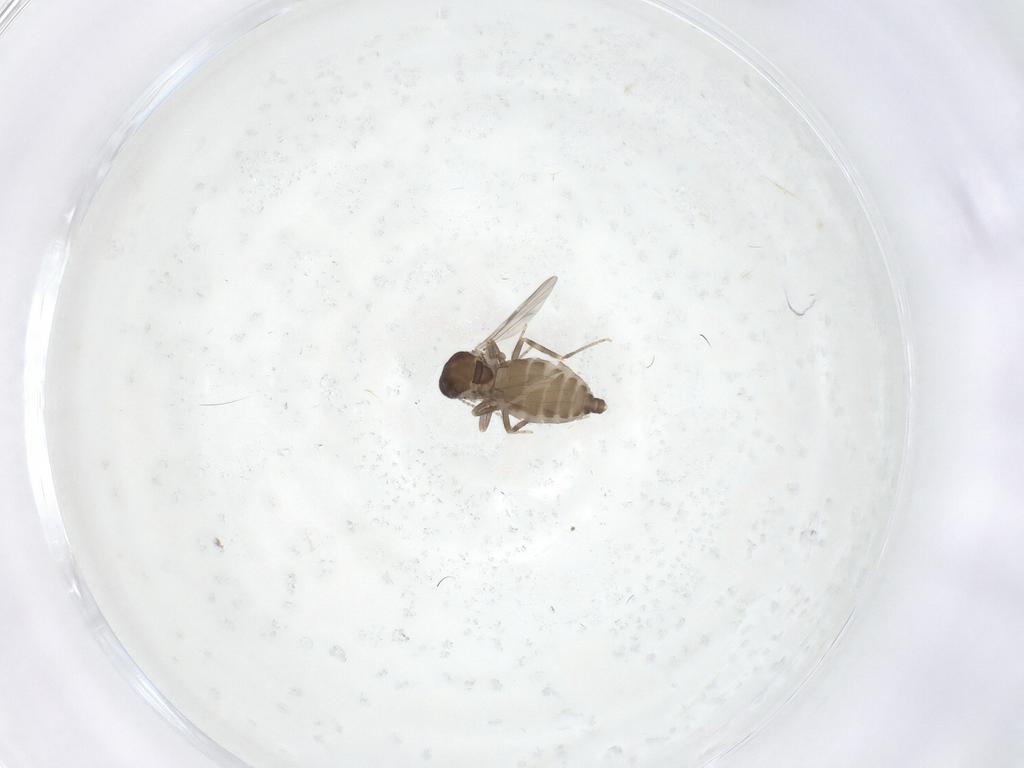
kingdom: Animalia
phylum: Arthropoda
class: Insecta
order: Diptera
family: Ceratopogonidae
